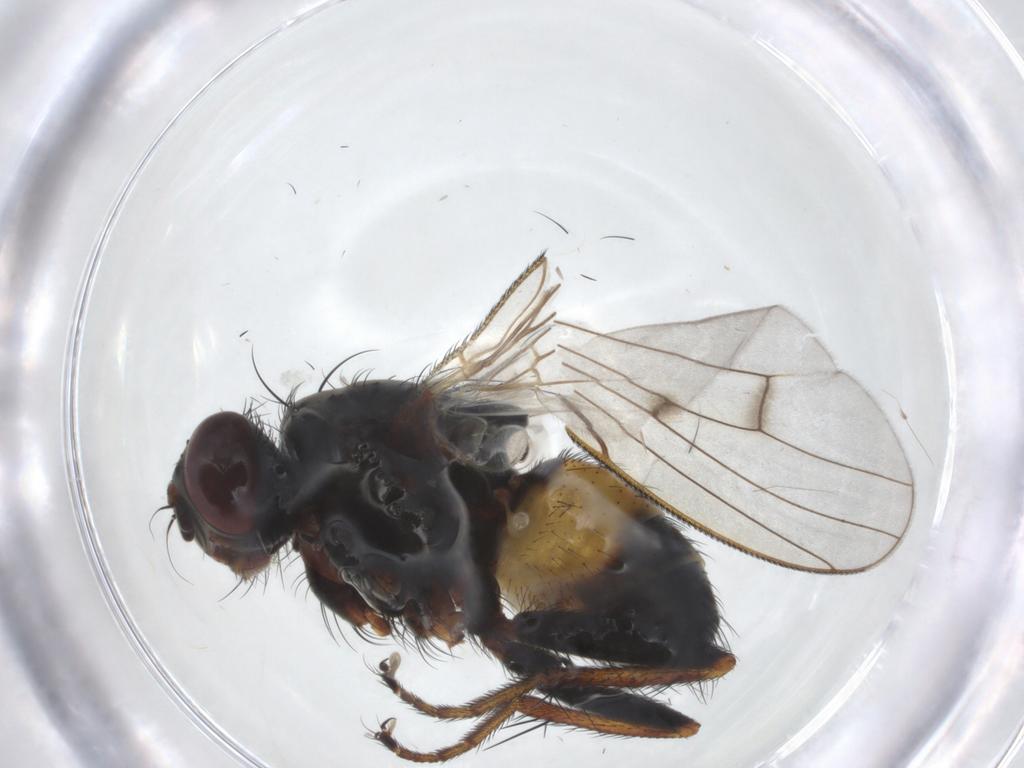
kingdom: Animalia
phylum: Arthropoda
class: Insecta
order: Diptera
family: Muscidae
